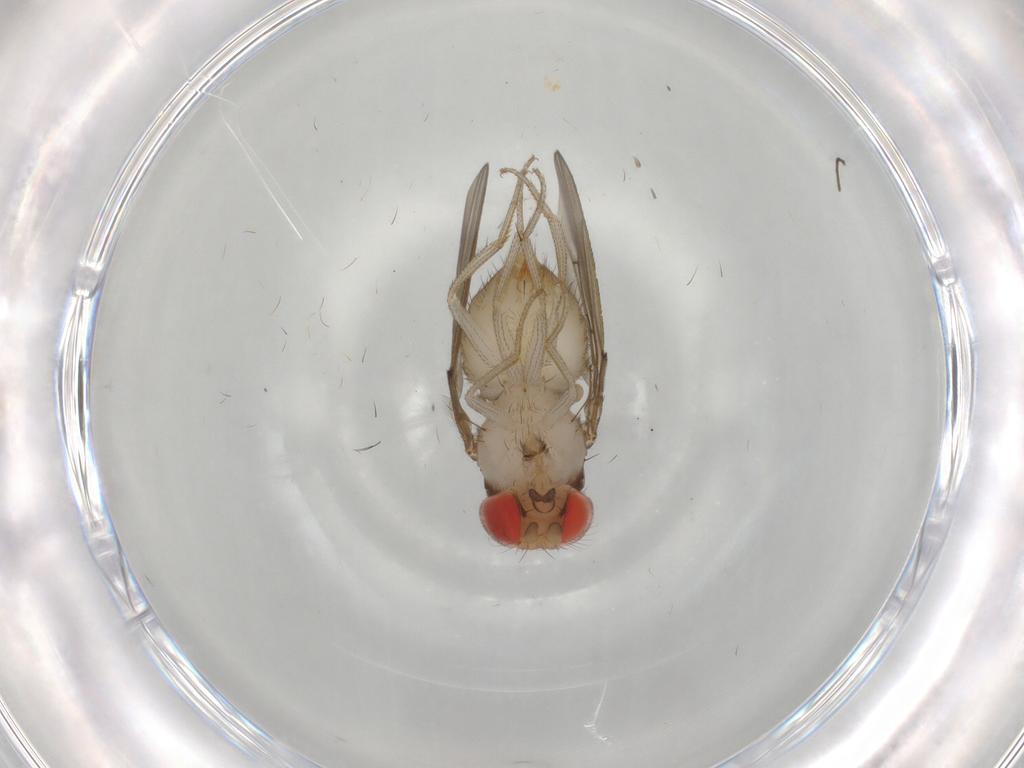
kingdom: Animalia
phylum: Arthropoda
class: Insecta
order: Diptera
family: Drosophilidae
